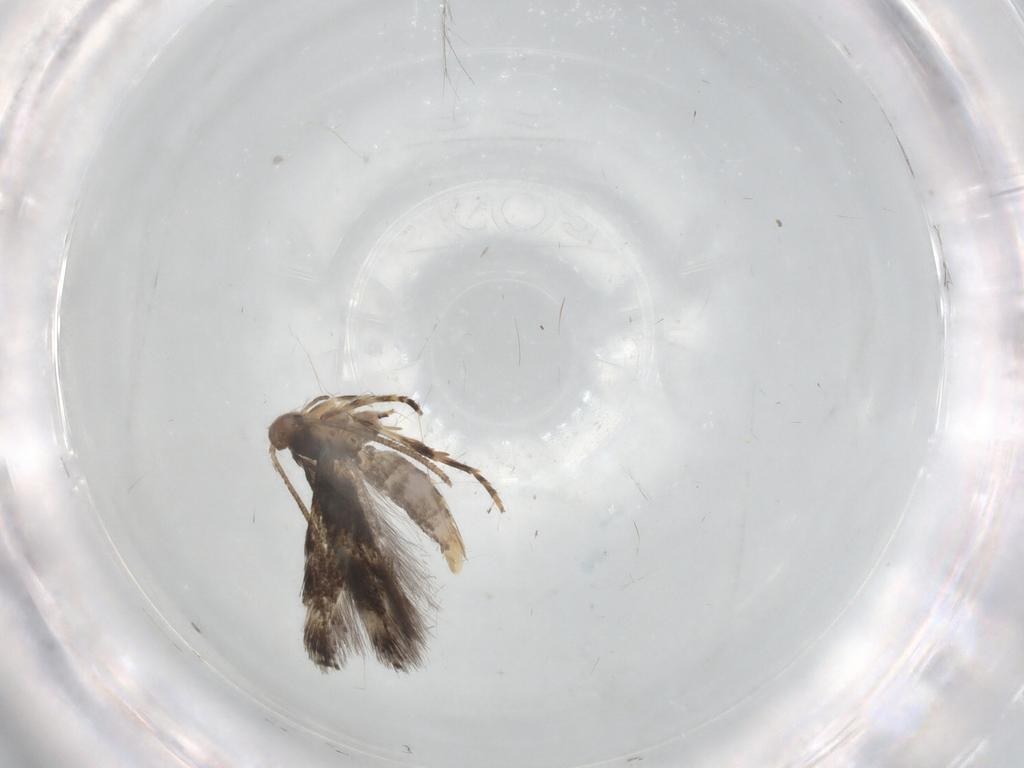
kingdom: Animalia
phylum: Arthropoda
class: Insecta
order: Lepidoptera
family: Elachistidae
